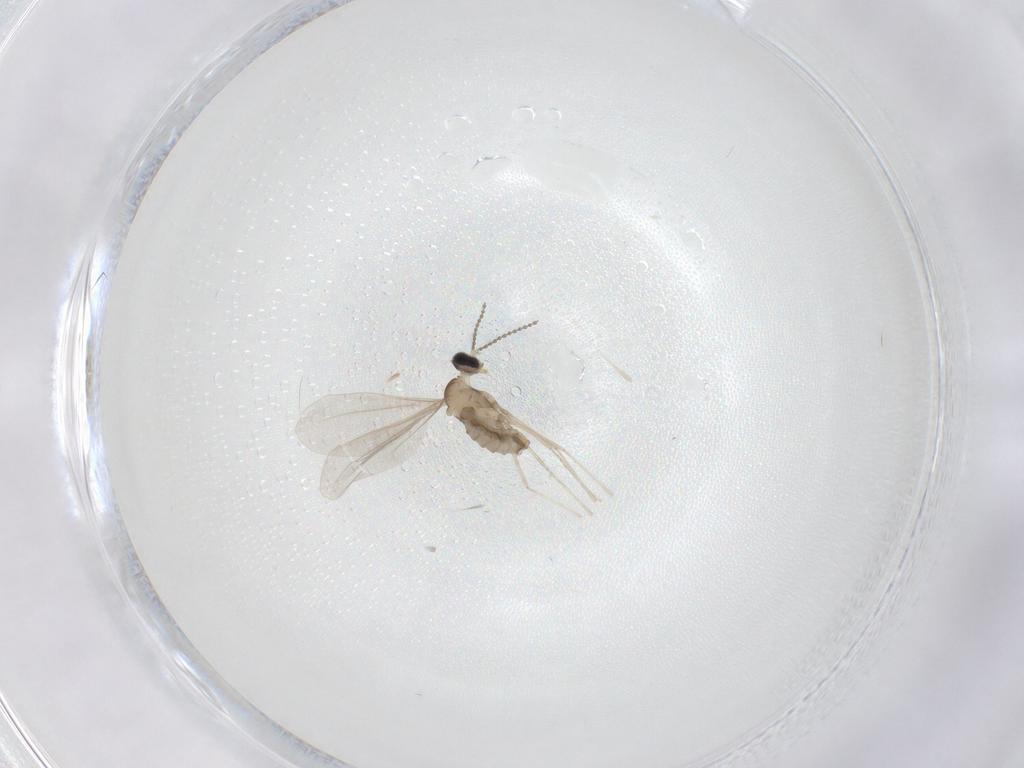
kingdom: Animalia
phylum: Arthropoda
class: Insecta
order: Diptera
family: Cecidomyiidae
